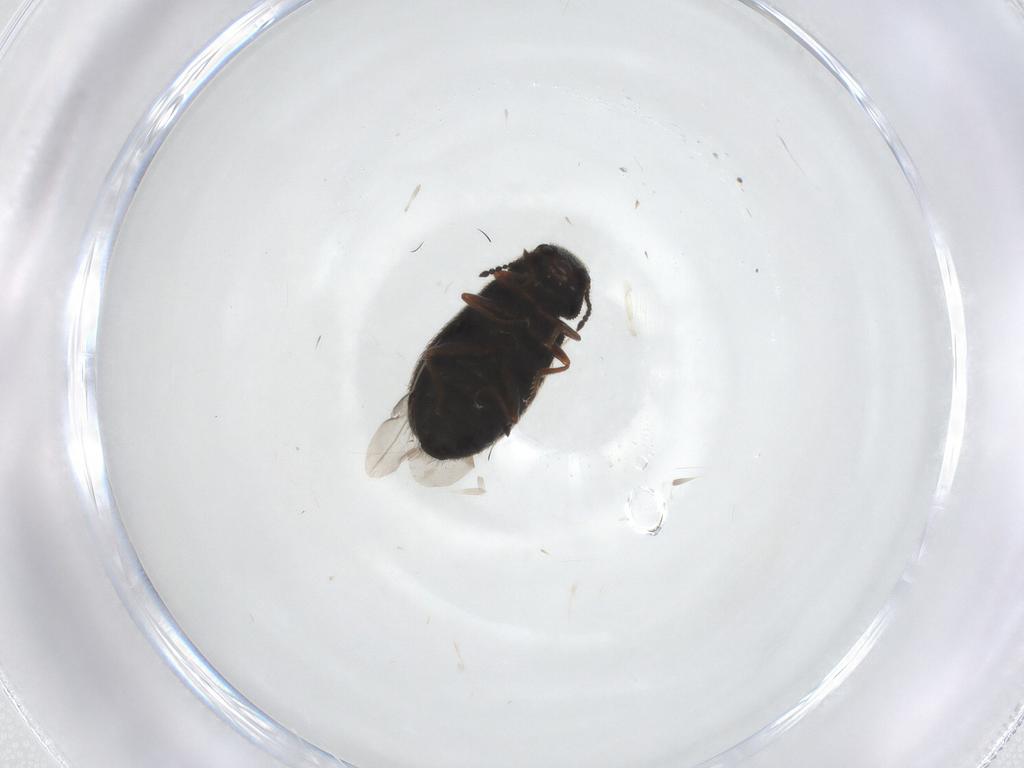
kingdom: Animalia
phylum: Arthropoda
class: Insecta
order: Coleoptera
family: Melyridae
